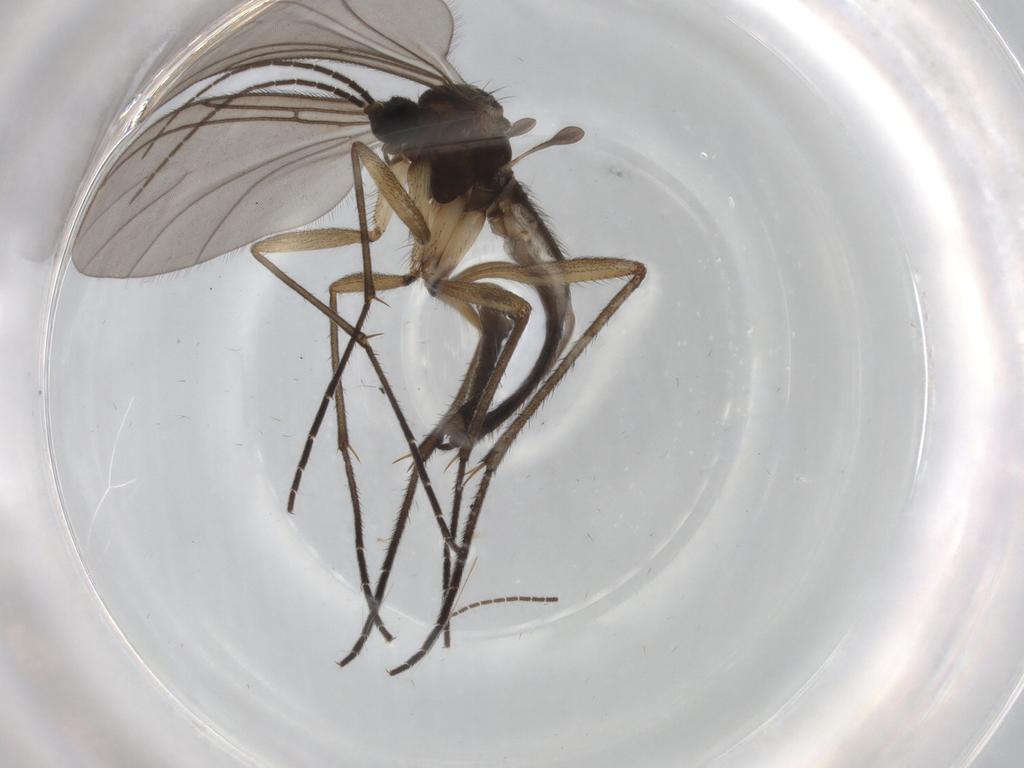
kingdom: Animalia
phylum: Arthropoda
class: Insecta
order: Diptera
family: Sciaridae
